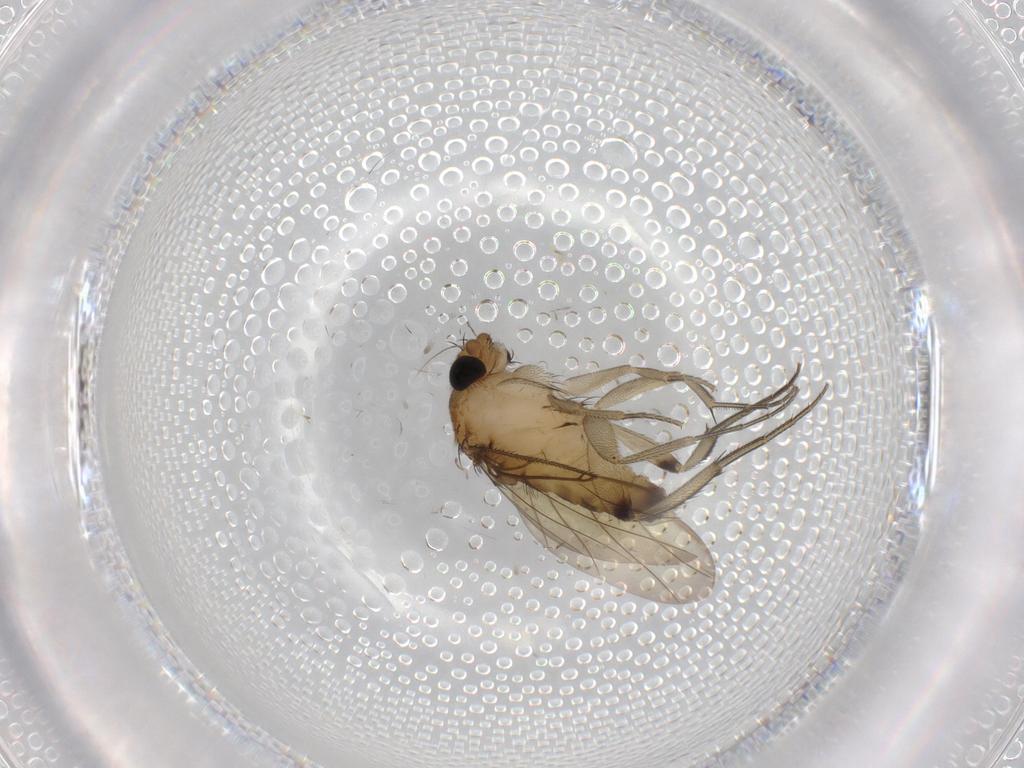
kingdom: Animalia
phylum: Arthropoda
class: Insecta
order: Diptera
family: Phoridae
